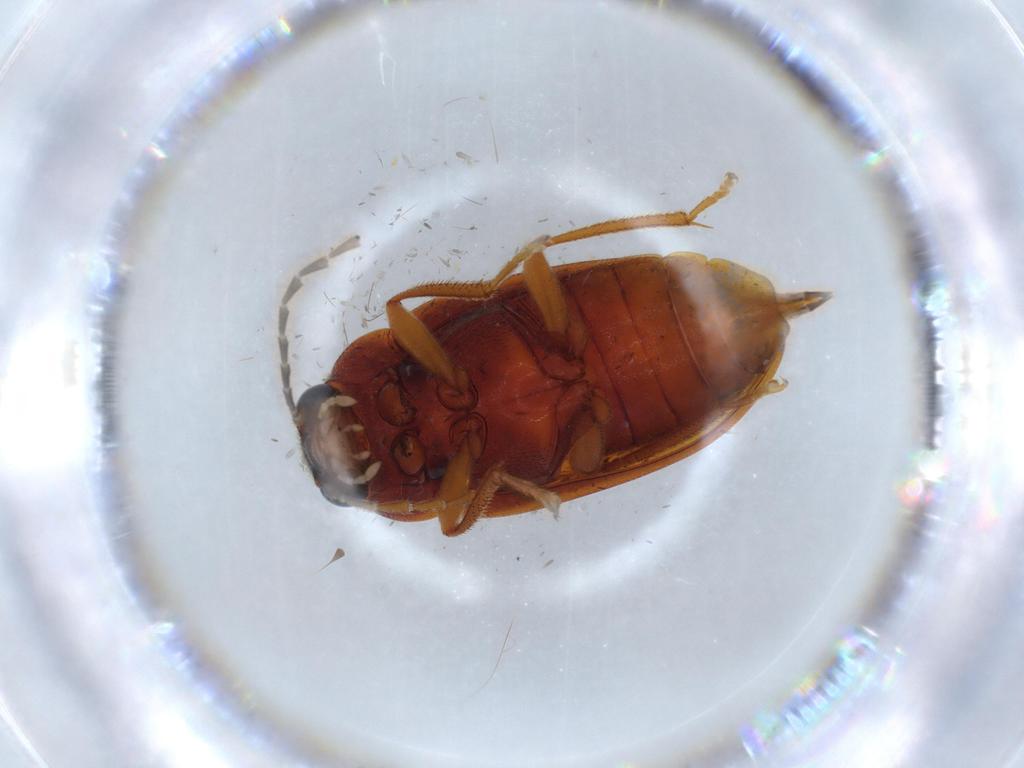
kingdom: Animalia
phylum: Arthropoda
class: Insecta
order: Coleoptera
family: Ptilodactylidae
